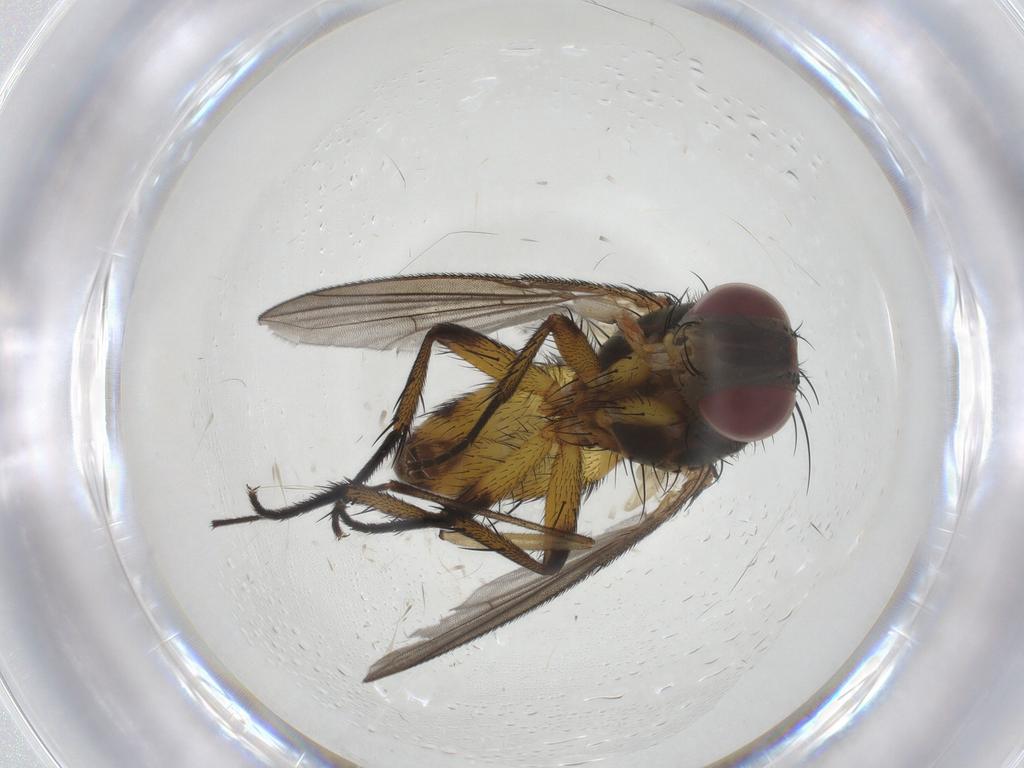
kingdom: Animalia
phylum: Arthropoda
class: Insecta
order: Diptera
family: Tachinidae
